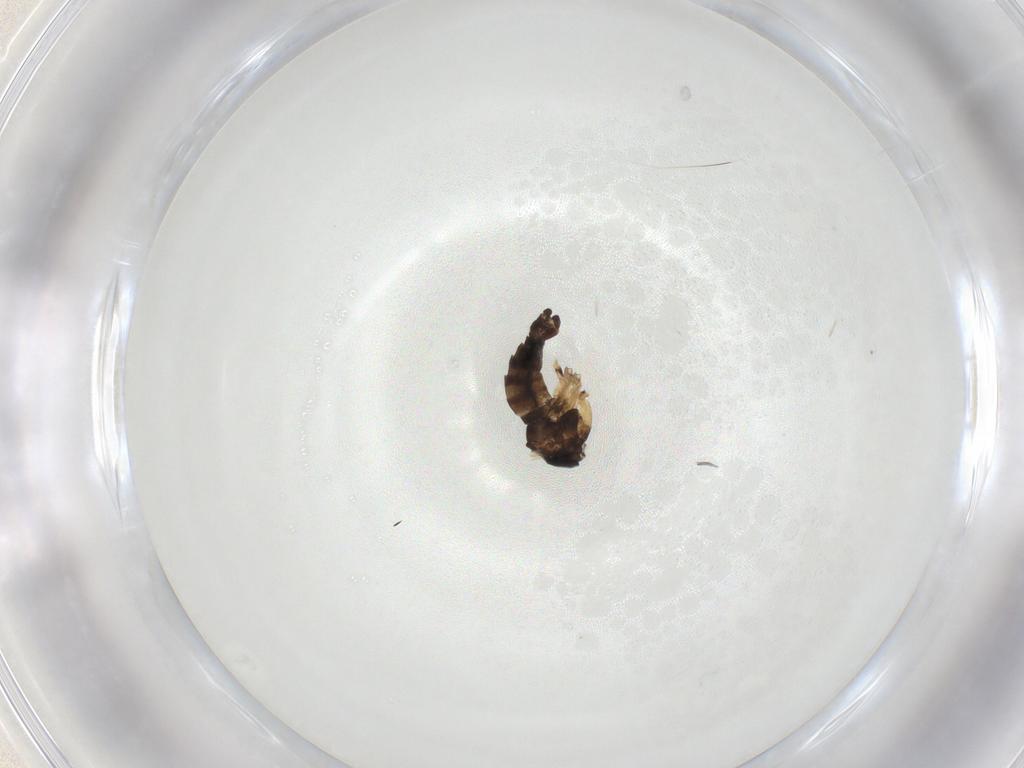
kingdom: Animalia
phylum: Arthropoda
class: Insecta
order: Diptera
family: Sciaridae
